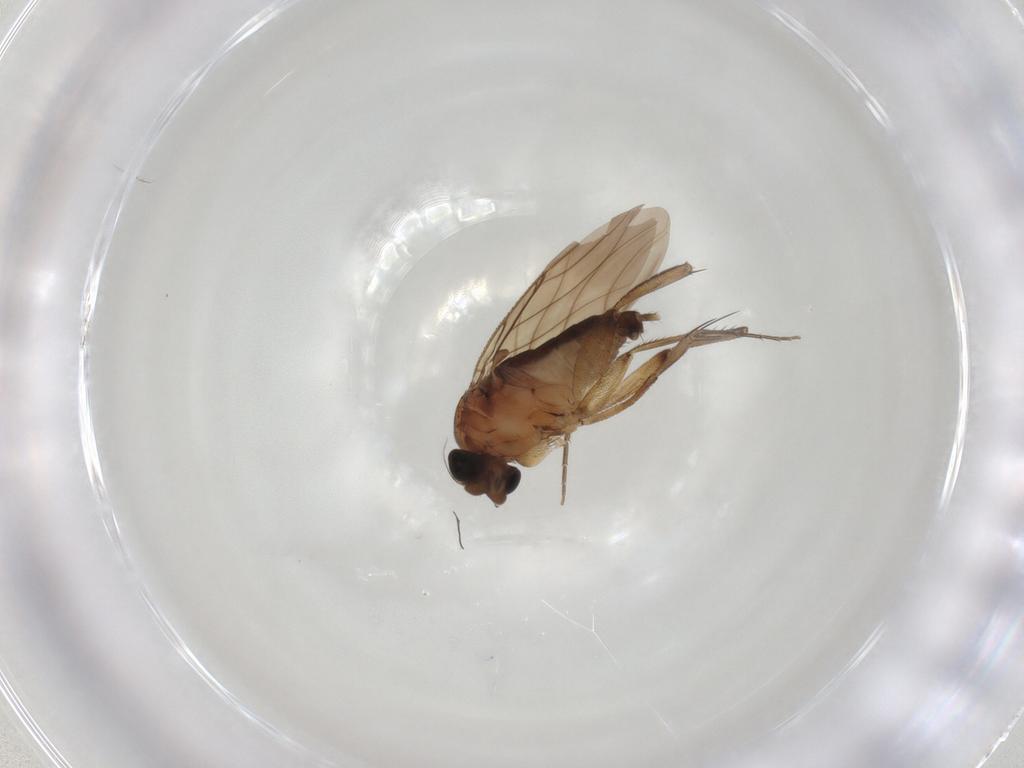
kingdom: Animalia
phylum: Arthropoda
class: Insecta
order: Diptera
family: Phoridae
